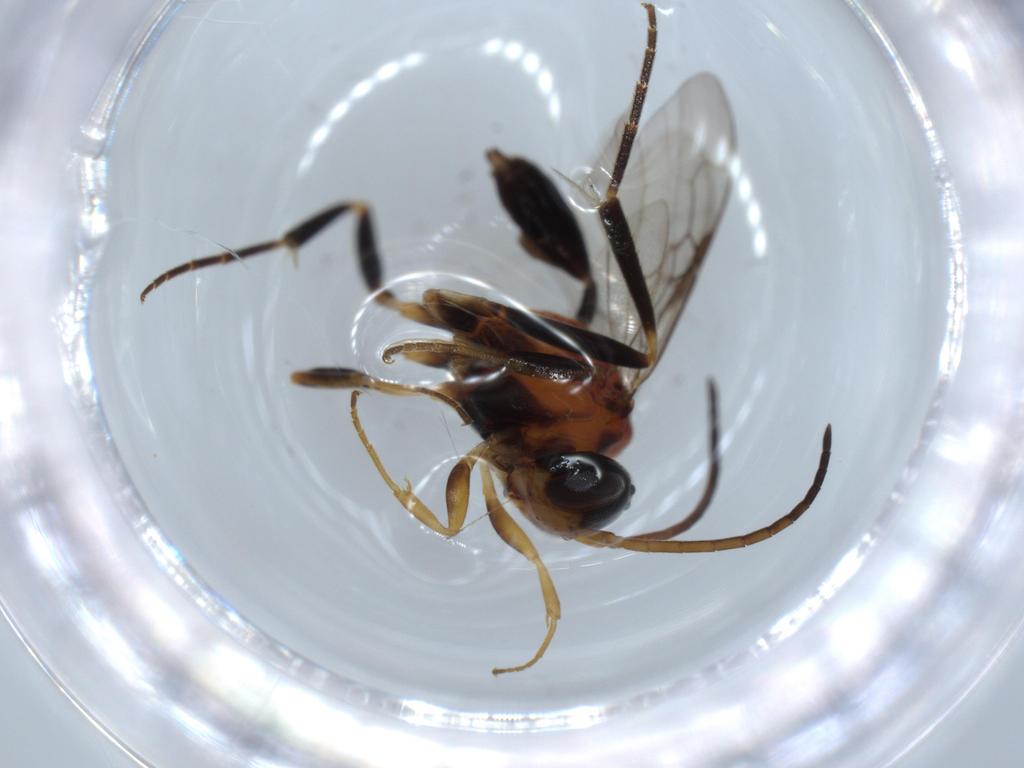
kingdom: Animalia
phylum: Arthropoda
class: Insecta
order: Hymenoptera
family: Evaniidae
